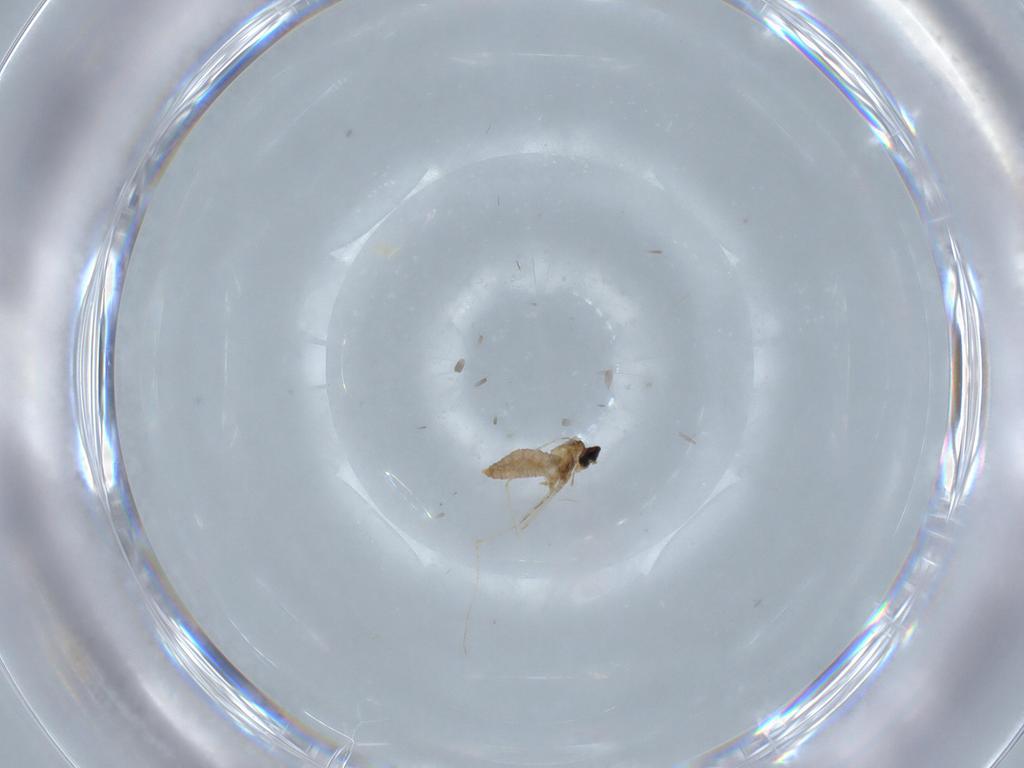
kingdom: Animalia
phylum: Arthropoda
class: Insecta
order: Diptera
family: Cecidomyiidae
